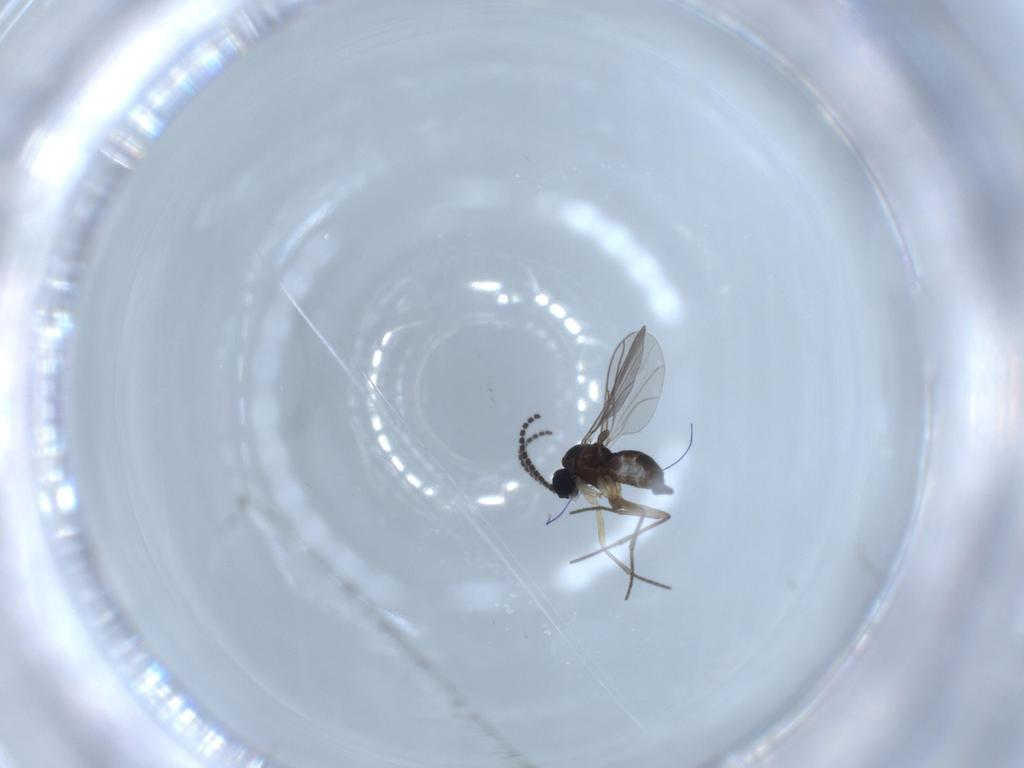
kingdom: Animalia
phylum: Arthropoda
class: Insecta
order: Diptera
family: Sciaridae
